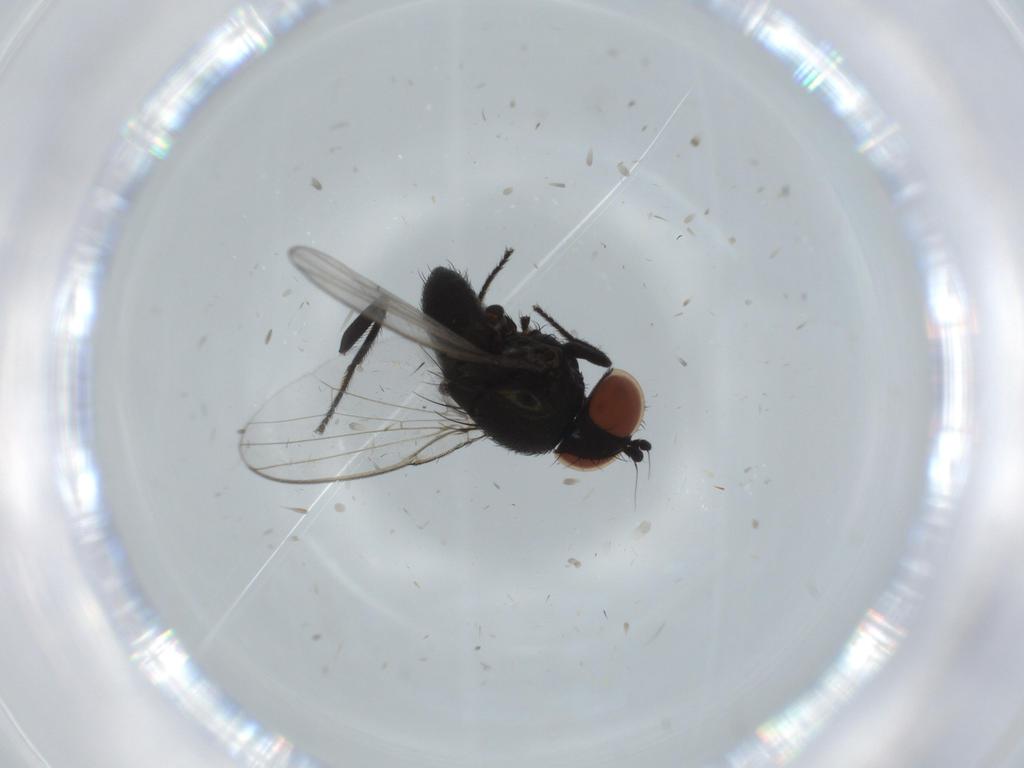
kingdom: Animalia
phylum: Arthropoda
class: Insecta
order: Diptera
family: Milichiidae
